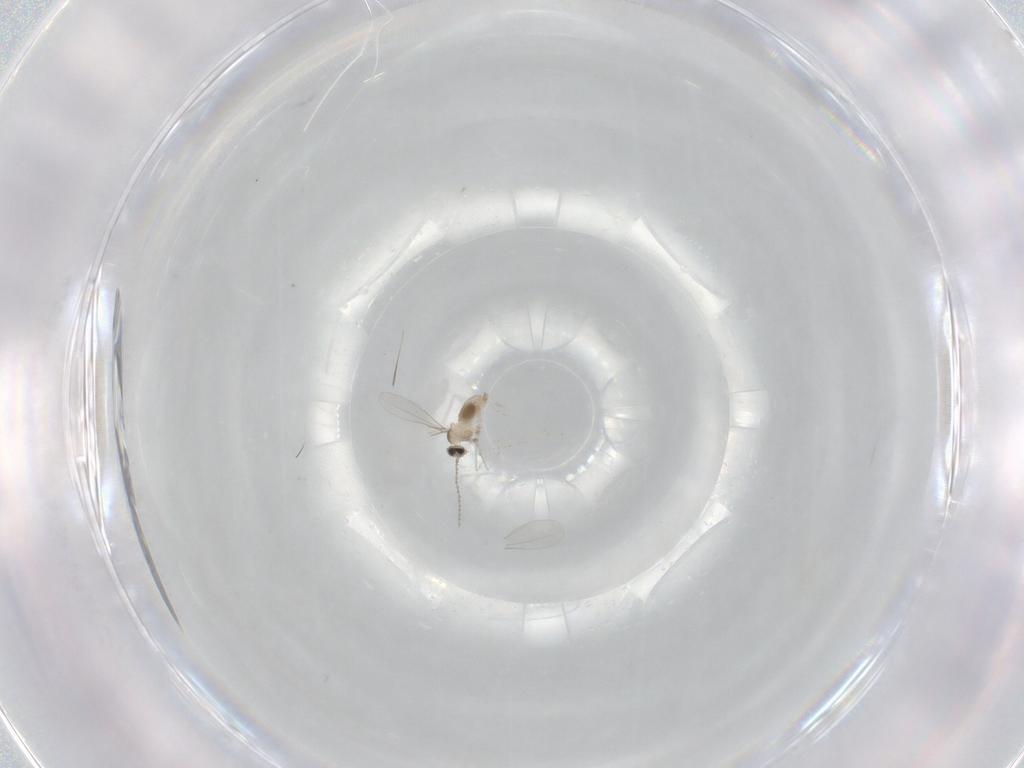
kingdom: Animalia
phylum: Arthropoda
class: Insecta
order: Diptera
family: Cecidomyiidae
